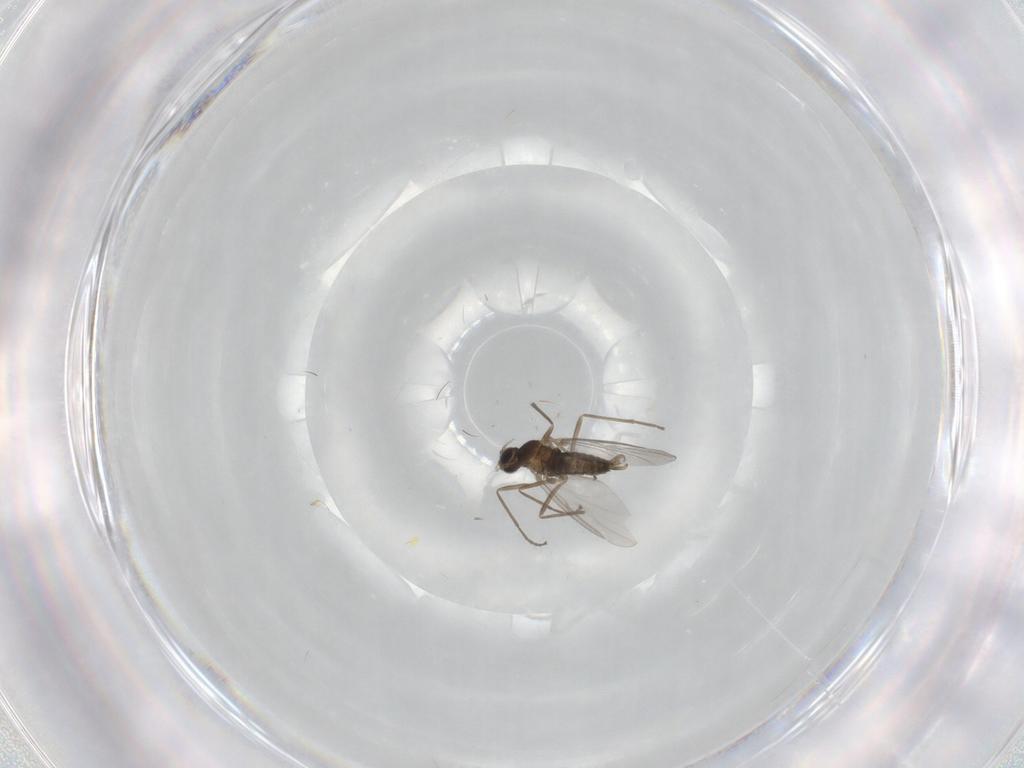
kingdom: Animalia
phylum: Arthropoda
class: Insecta
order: Diptera
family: Cecidomyiidae
